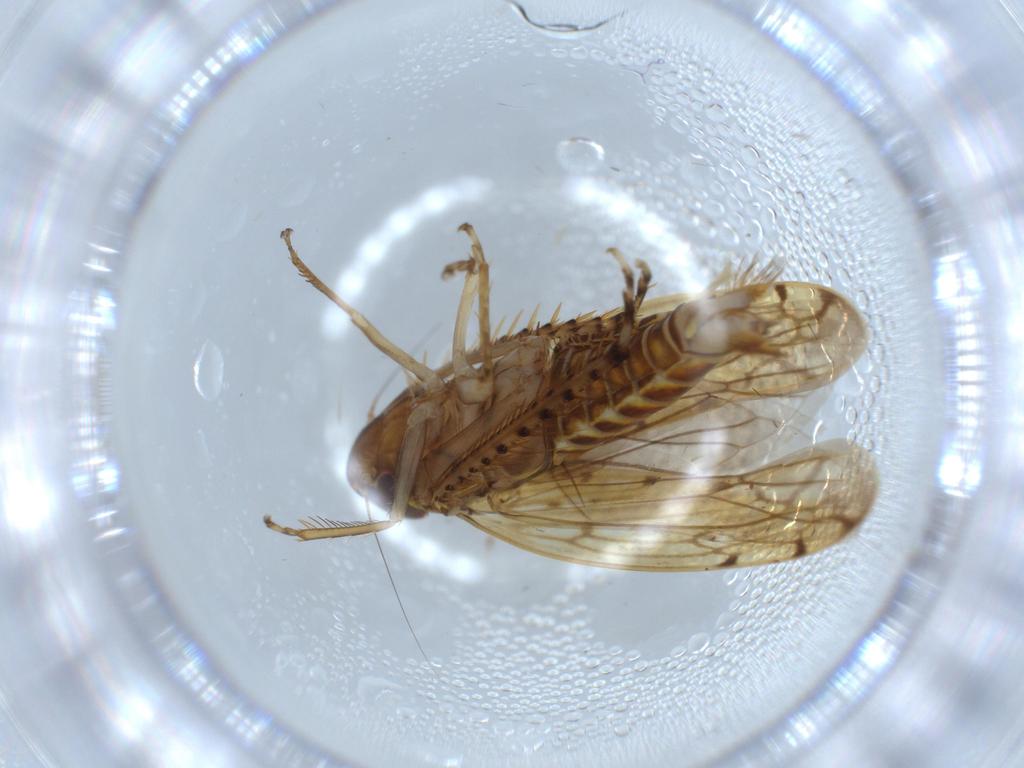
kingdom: Animalia
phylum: Arthropoda
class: Insecta
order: Hemiptera
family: Cicadellidae
